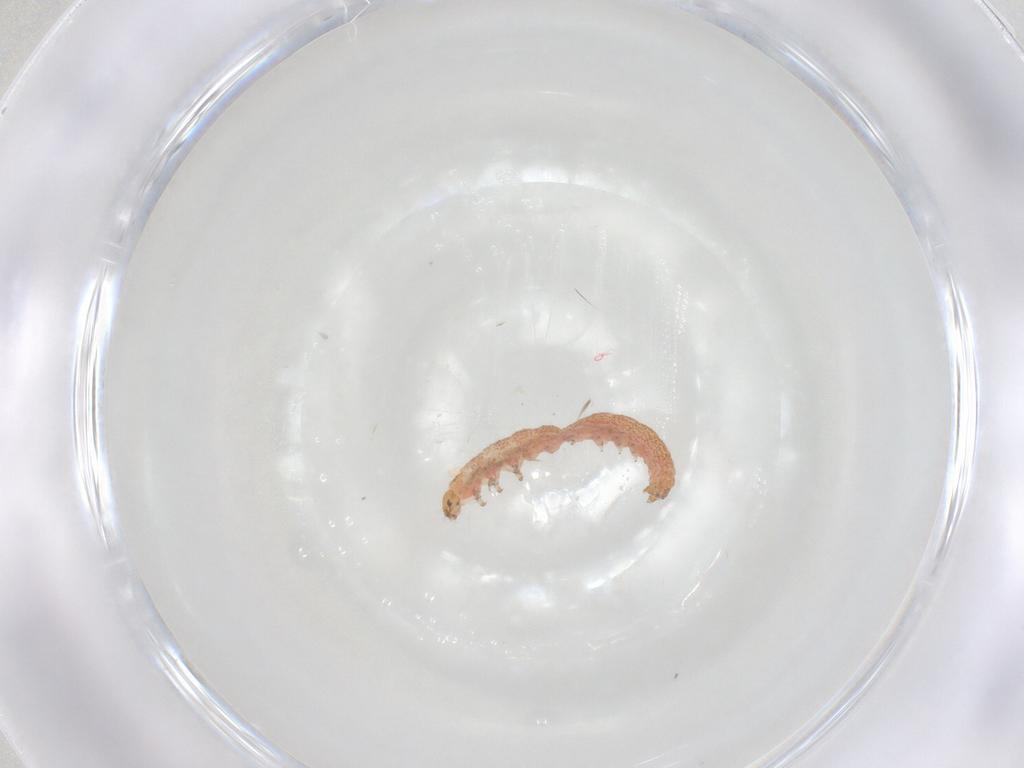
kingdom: Animalia
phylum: Arthropoda
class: Insecta
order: Lepidoptera
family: Gelechiidae
